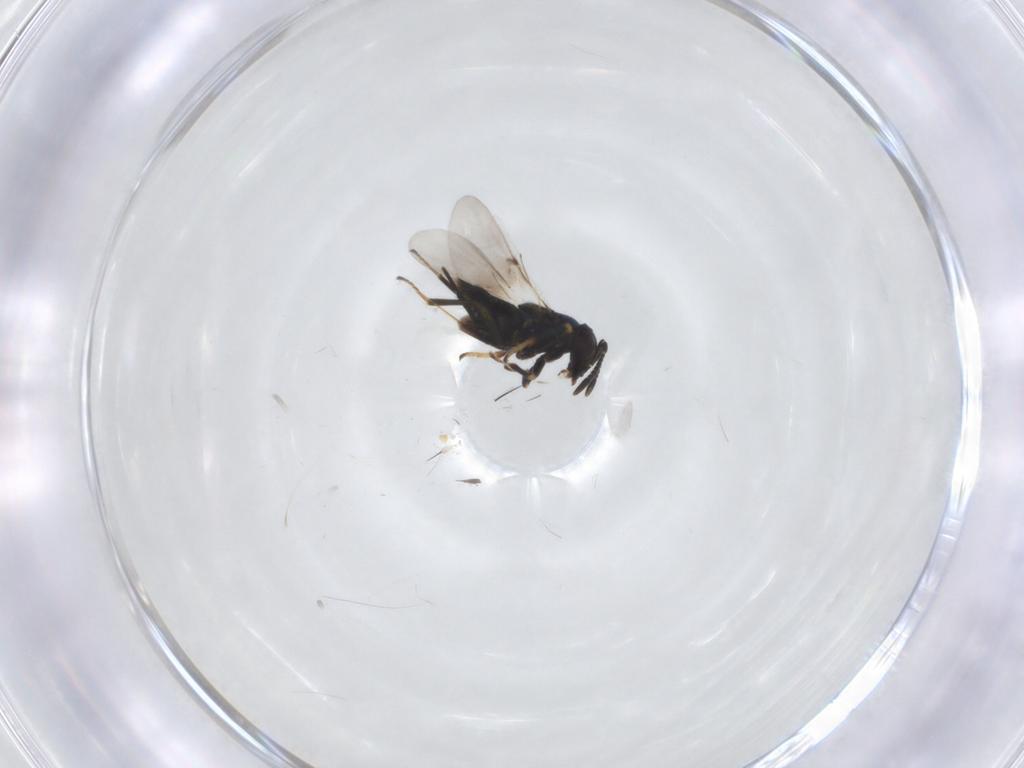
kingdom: Animalia
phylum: Arthropoda
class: Insecta
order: Hymenoptera
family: Encyrtidae
